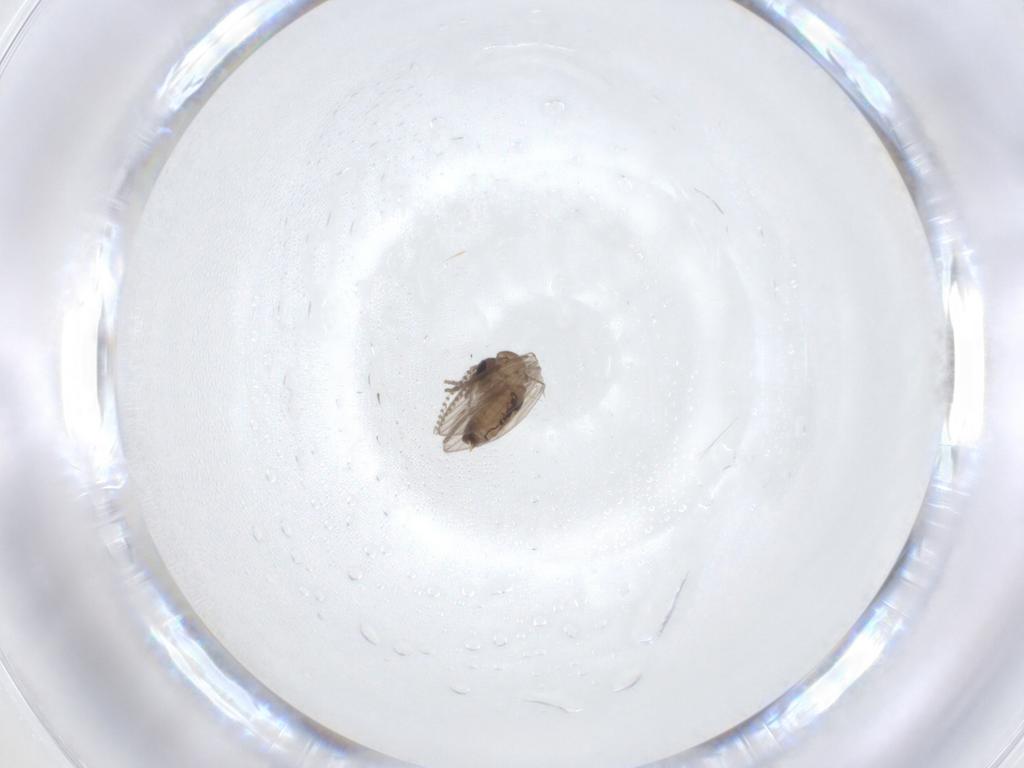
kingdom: Animalia
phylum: Arthropoda
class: Insecta
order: Diptera
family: Psychodidae
